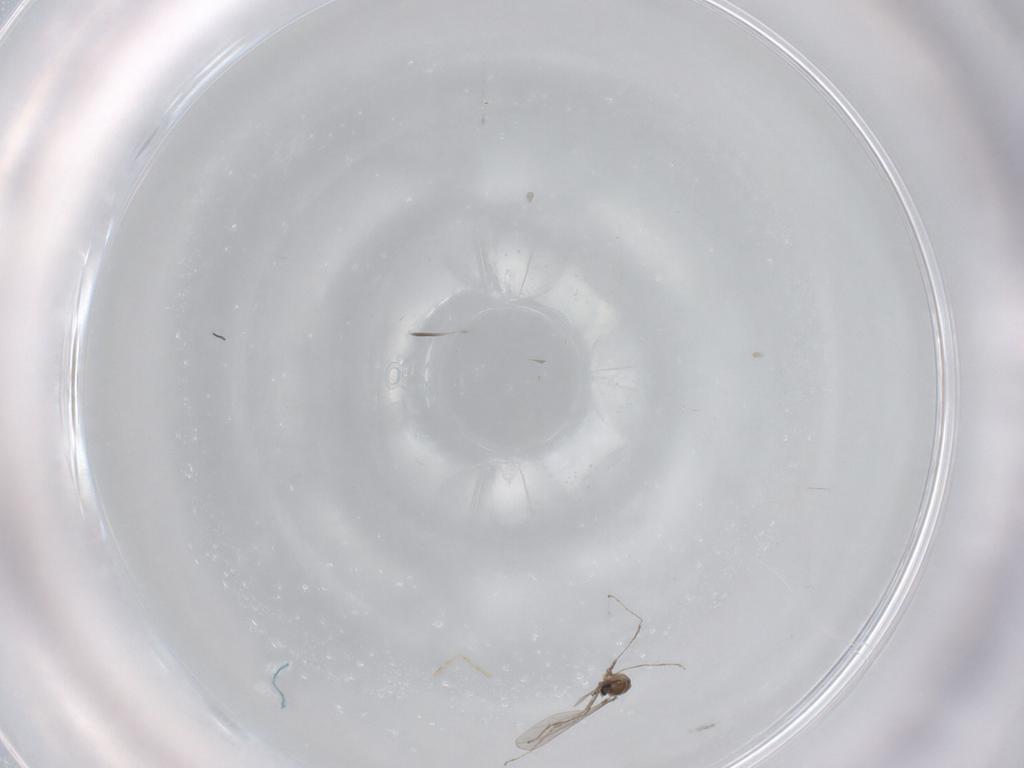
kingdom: Animalia
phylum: Arthropoda
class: Insecta
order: Diptera
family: Cecidomyiidae
